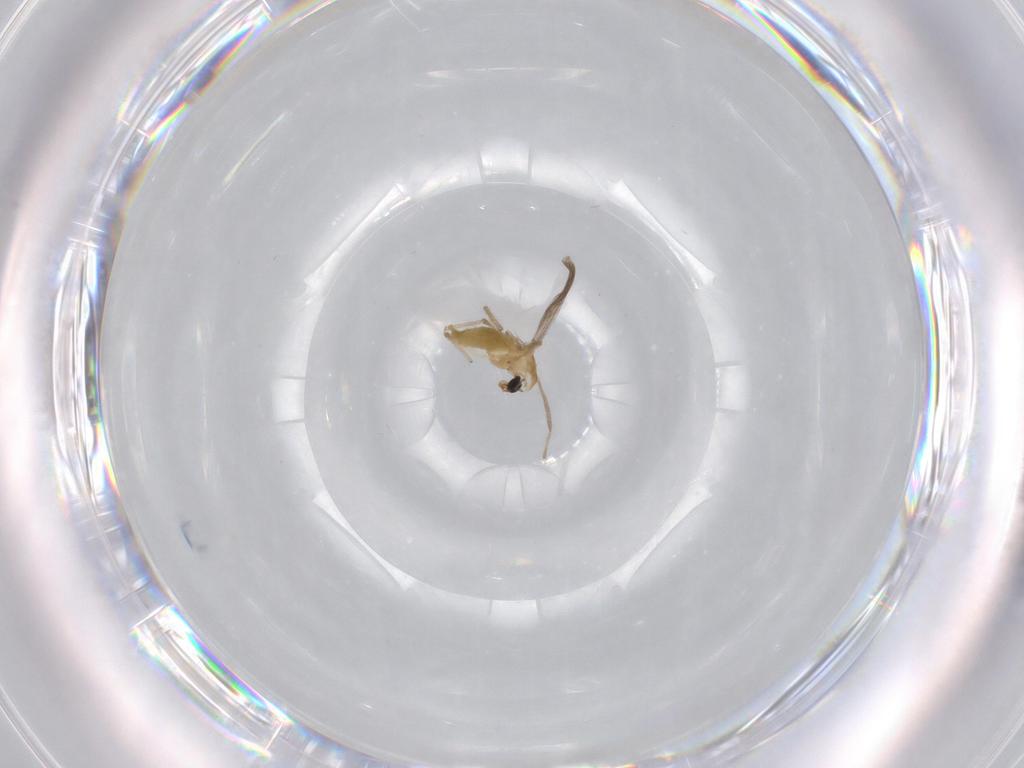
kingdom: Animalia
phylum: Arthropoda
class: Insecta
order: Diptera
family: Chironomidae
